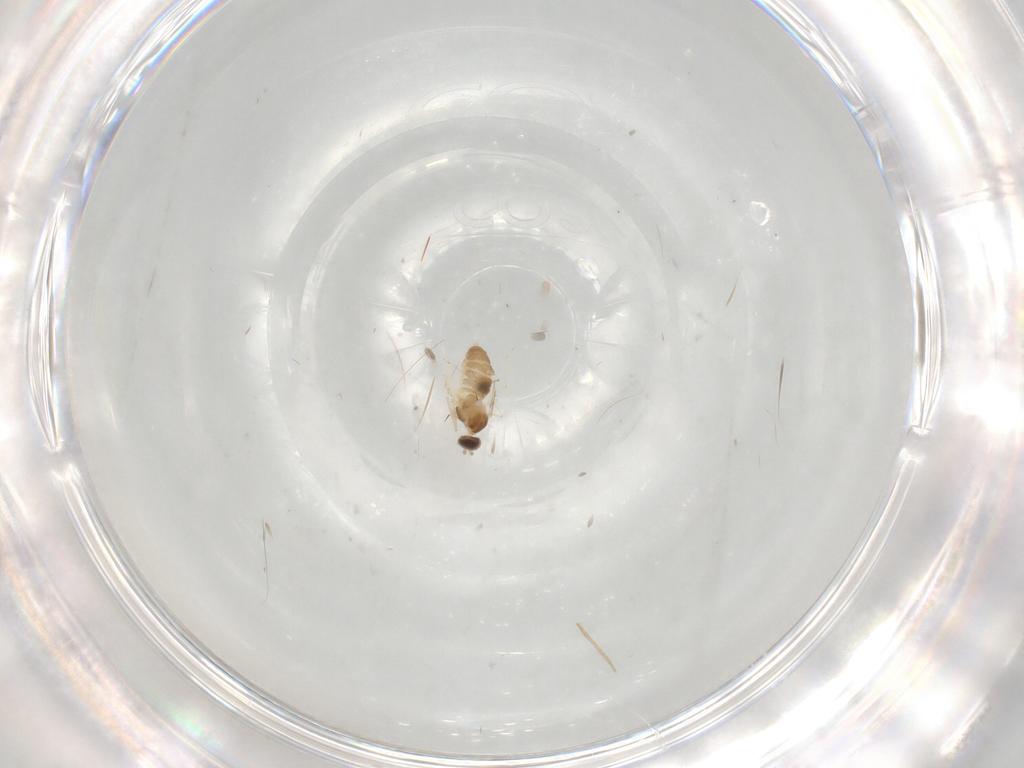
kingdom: Animalia
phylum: Arthropoda
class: Insecta
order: Diptera
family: Cecidomyiidae
